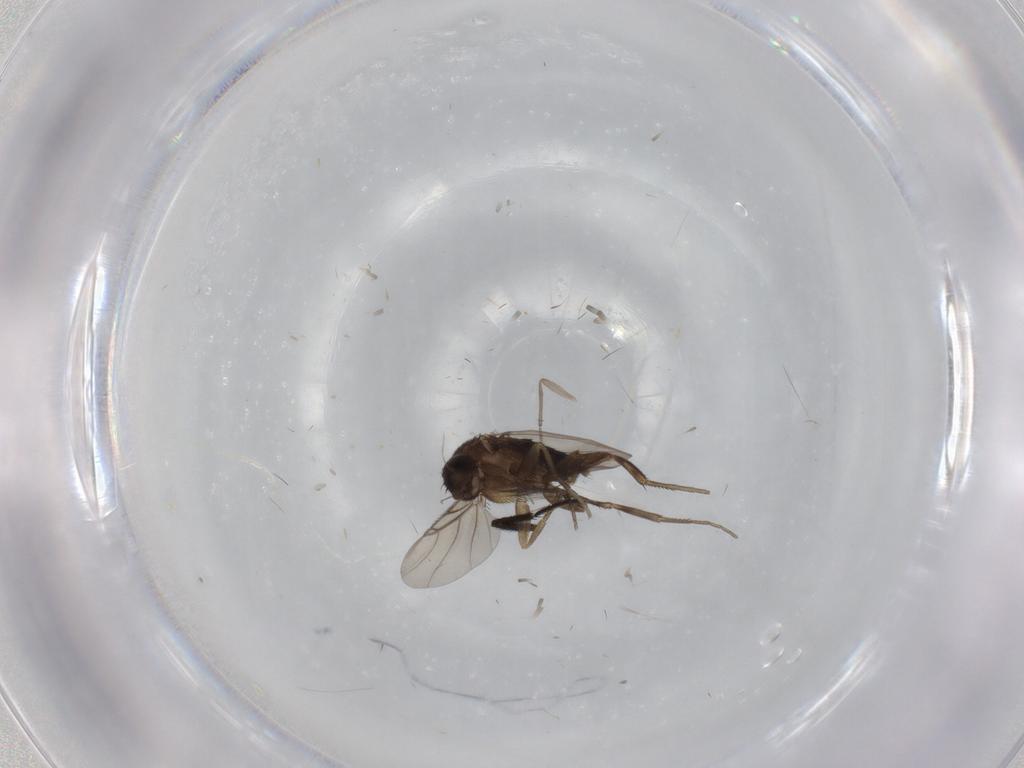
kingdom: Animalia
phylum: Arthropoda
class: Insecta
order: Diptera
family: Phoridae
